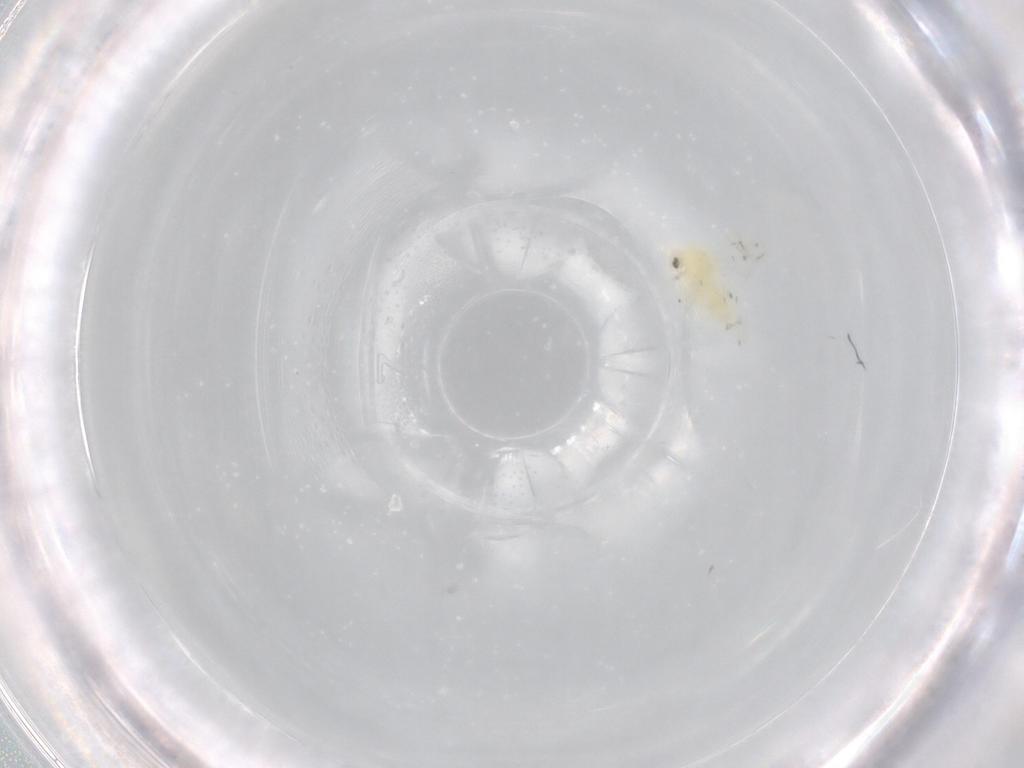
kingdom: Animalia
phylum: Arthropoda
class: Insecta
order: Hemiptera
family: Aleyrodidae
